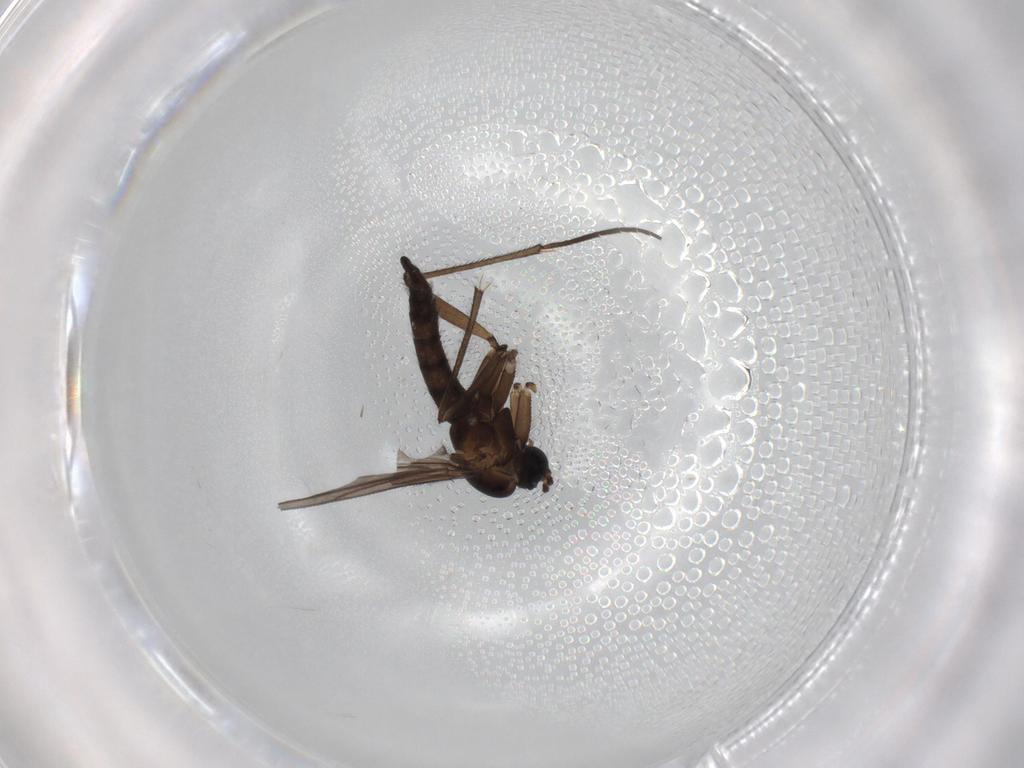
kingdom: Animalia
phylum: Arthropoda
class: Insecta
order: Diptera
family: Sciaridae
